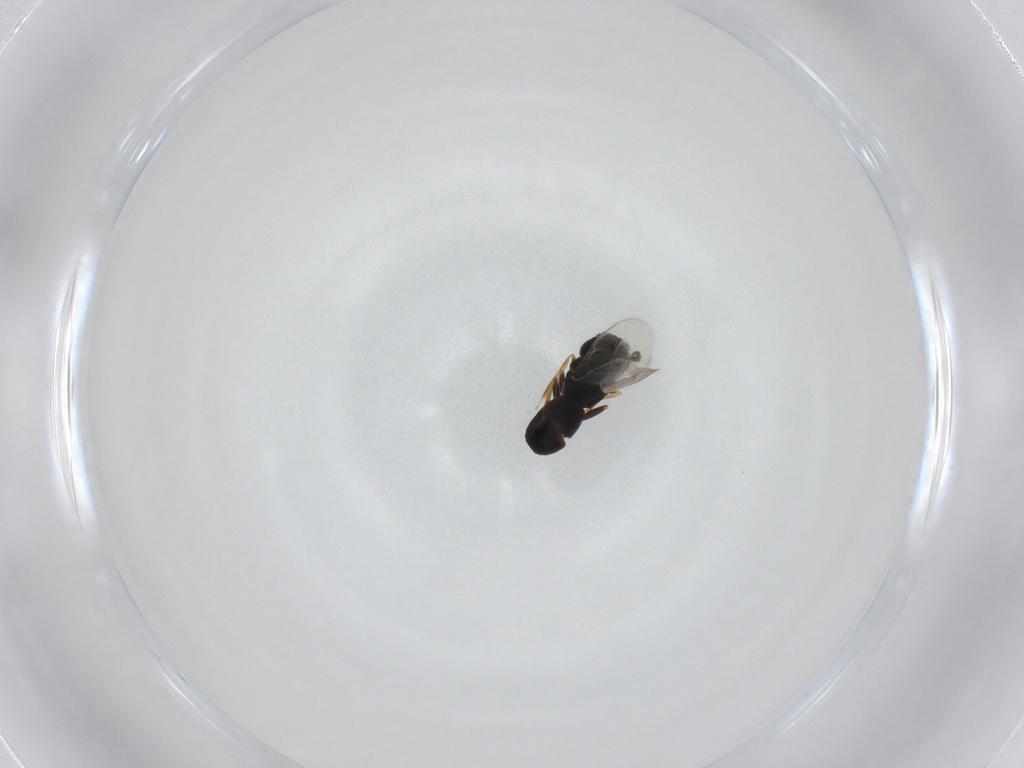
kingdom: Animalia
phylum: Arthropoda
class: Insecta
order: Hymenoptera
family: Scelionidae
